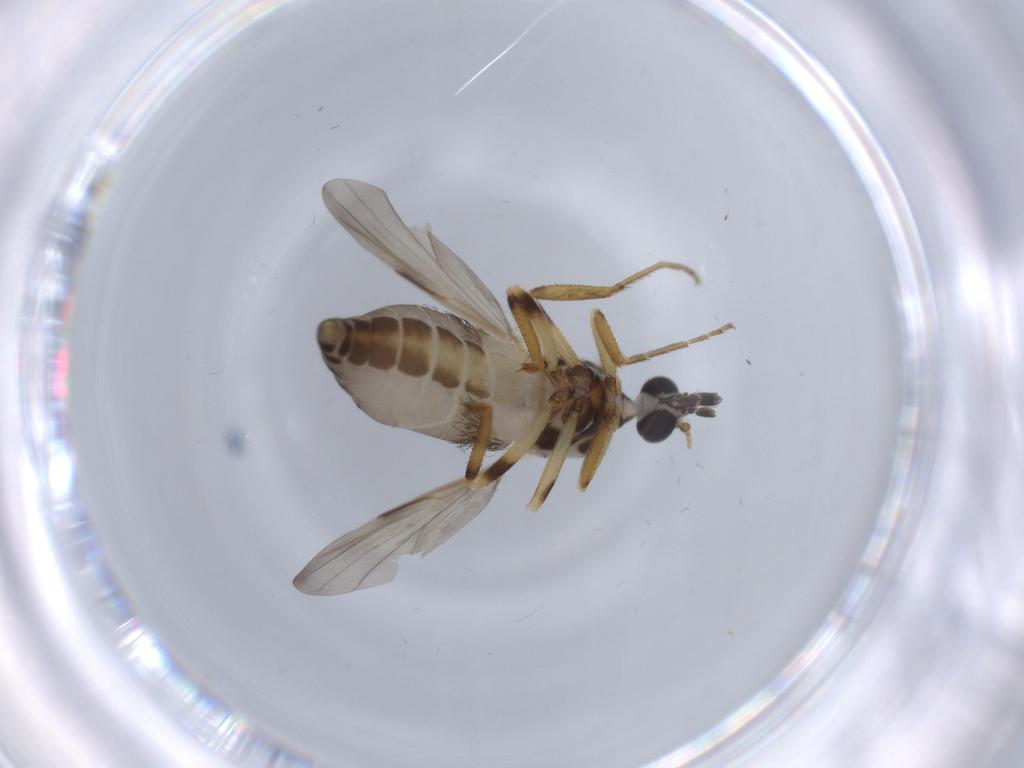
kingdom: Animalia
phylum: Arthropoda
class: Insecta
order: Diptera
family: Ceratopogonidae
